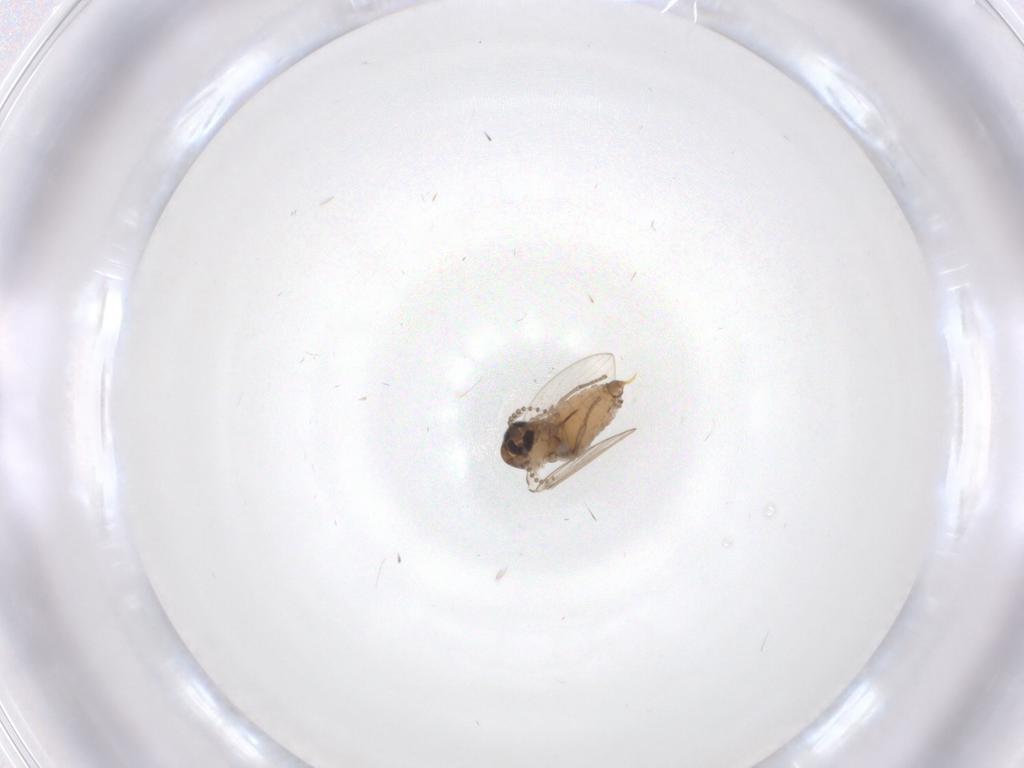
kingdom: Animalia
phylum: Arthropoda
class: Insecta
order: Diptera
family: Psychodidae
